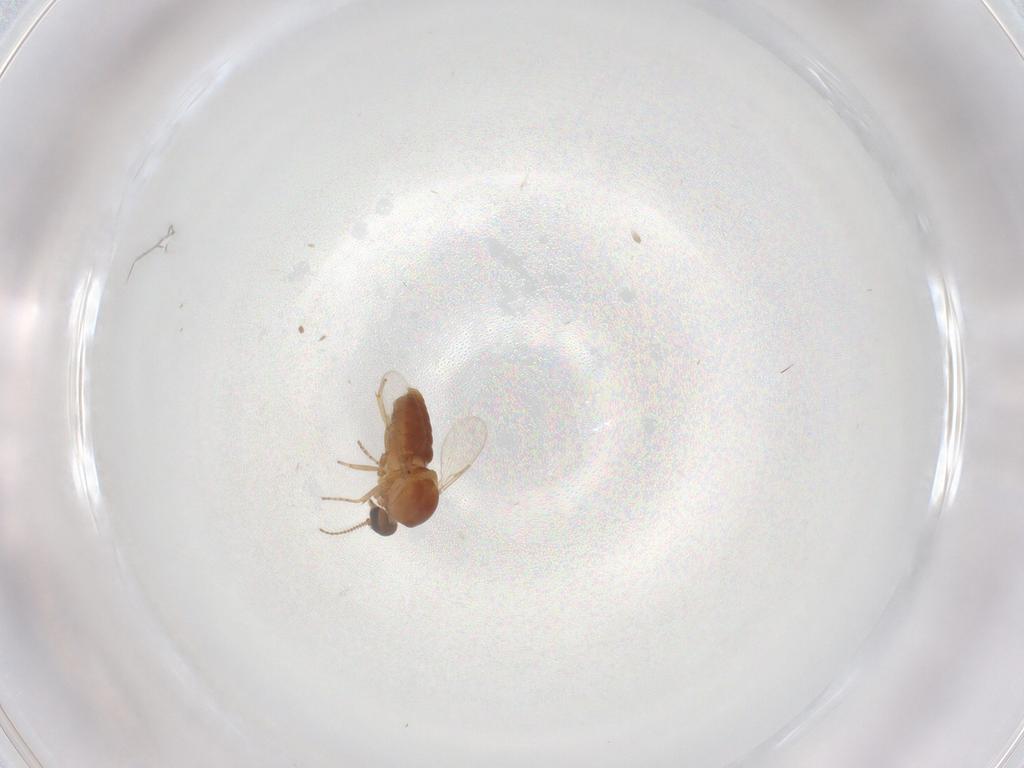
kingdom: Animalia
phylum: Arthropoda
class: Insecta
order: Diptera
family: Ceratopogonidae
